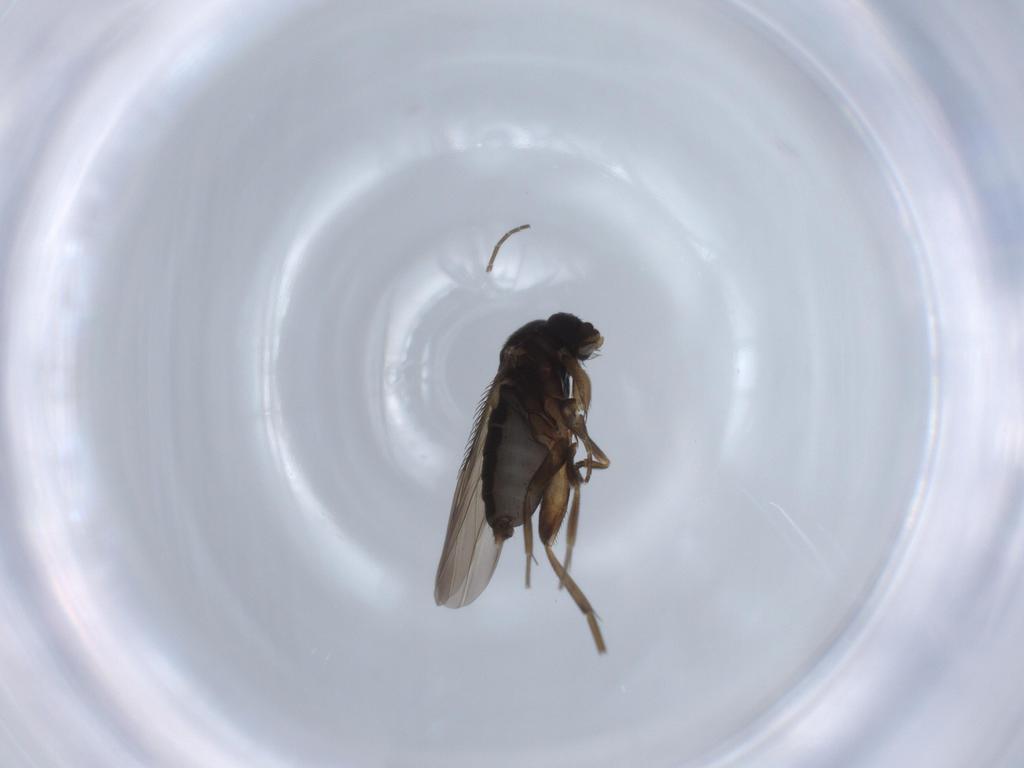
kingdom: Animalia
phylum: Arthropoda
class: Insecta
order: Diptera
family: Phoridae
